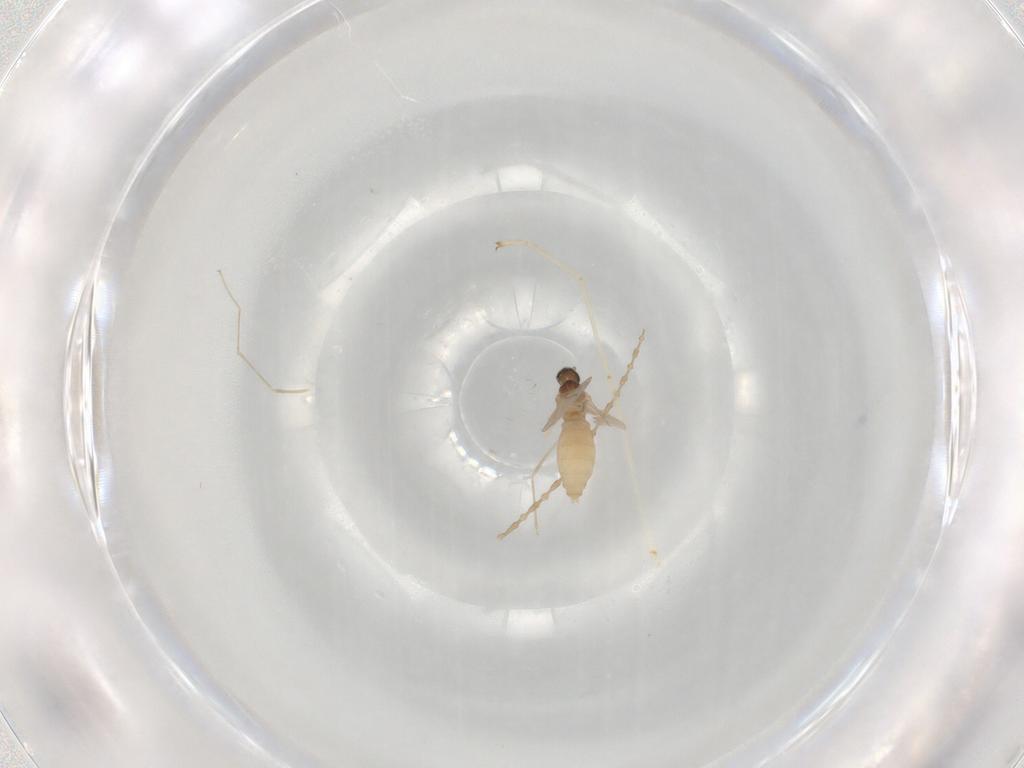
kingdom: Animalia
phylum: Arthropoda
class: Insecta
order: Diptera
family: Cecidomyiidae
